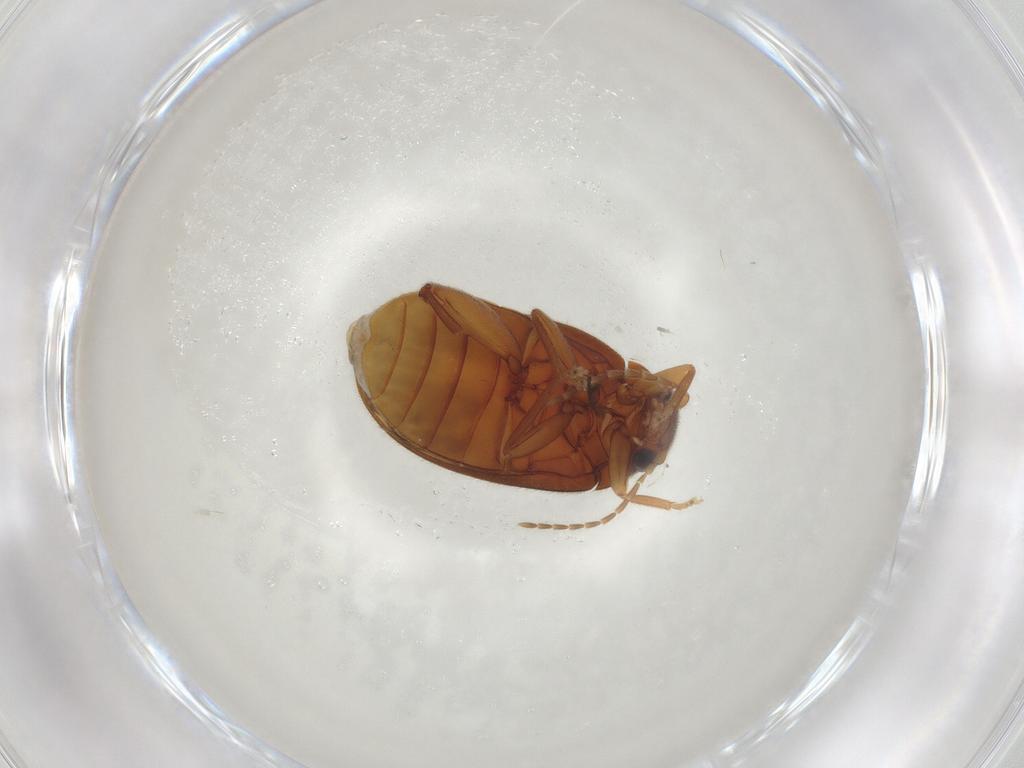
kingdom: Animalia
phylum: Arthropoda
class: Insecta
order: Coleoptera
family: Scirtidae
